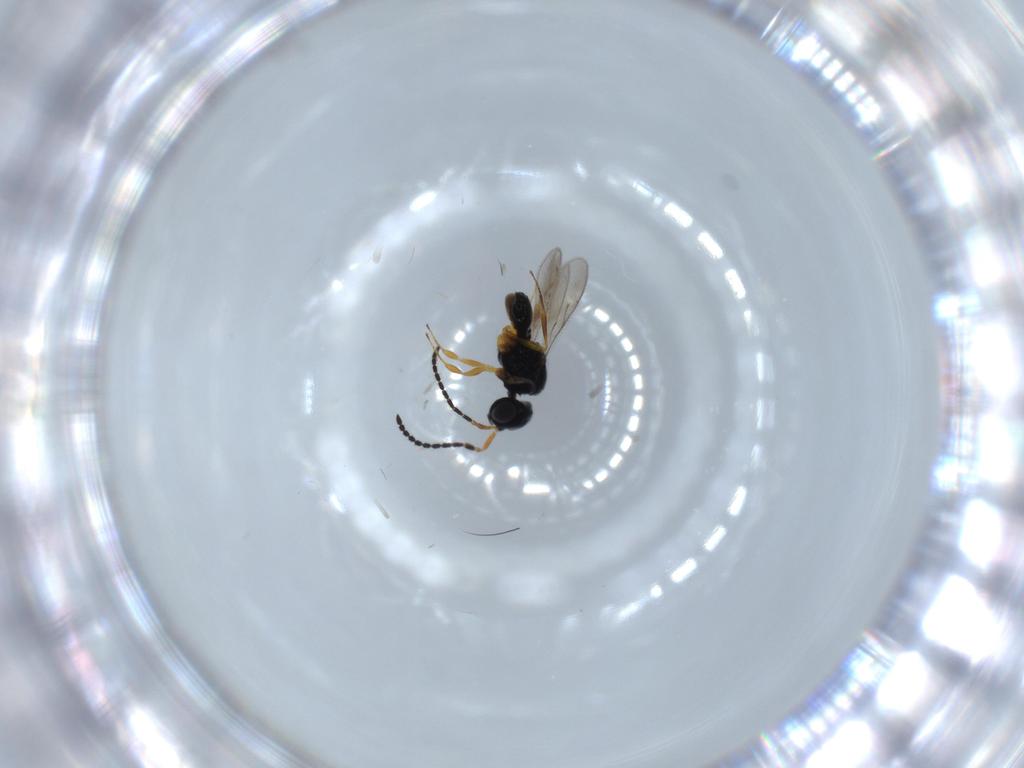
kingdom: Animalia
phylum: Arthropoda
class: Insecta
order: Hymenoptera
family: Scelionidae
